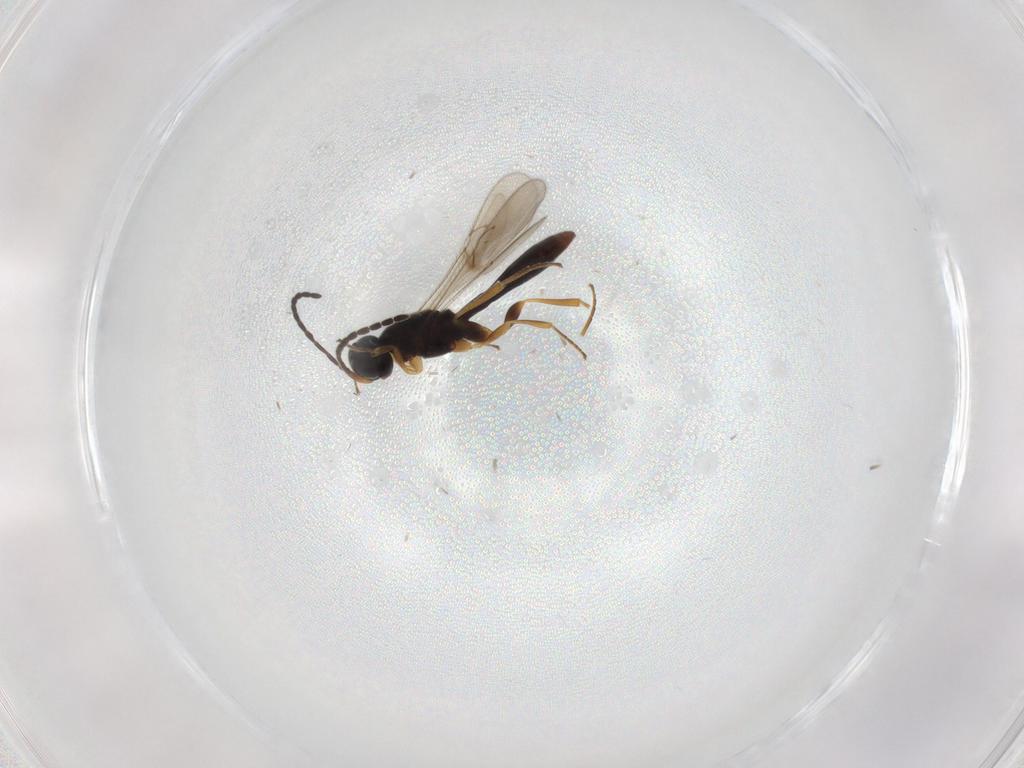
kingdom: Animalia
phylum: Arthropoda
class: Insecta
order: Hymenoptera
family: Scelionidae
